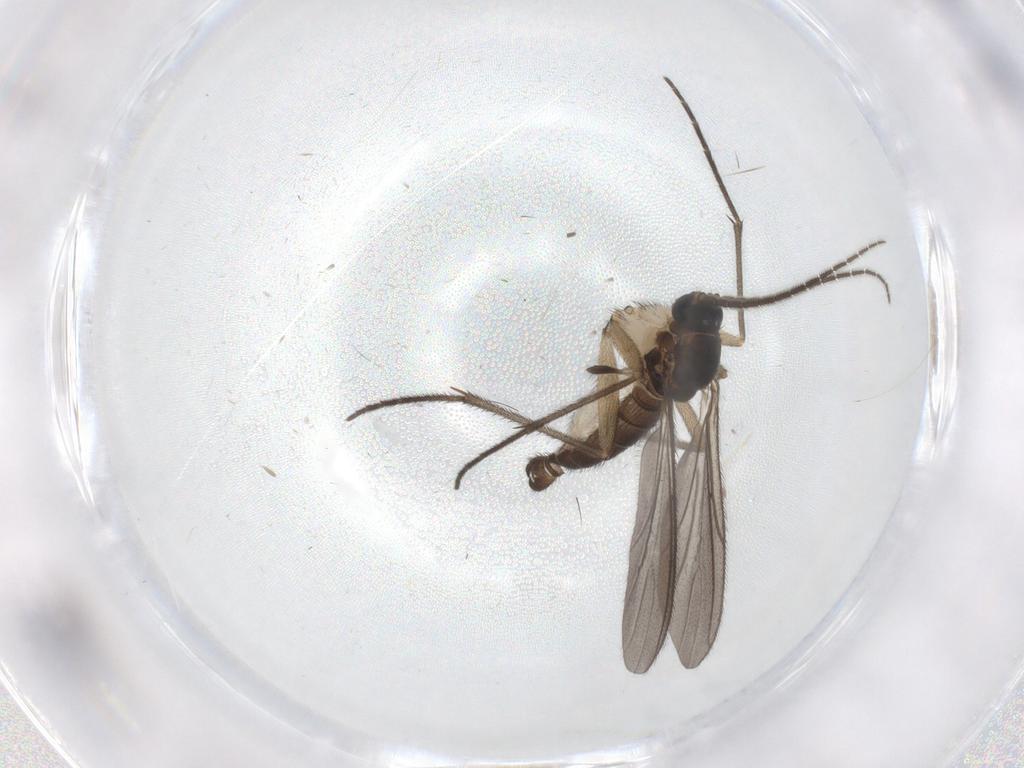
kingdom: Animalia
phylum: Arthropoda
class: Insecta
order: Diptera
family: Sciaridae
